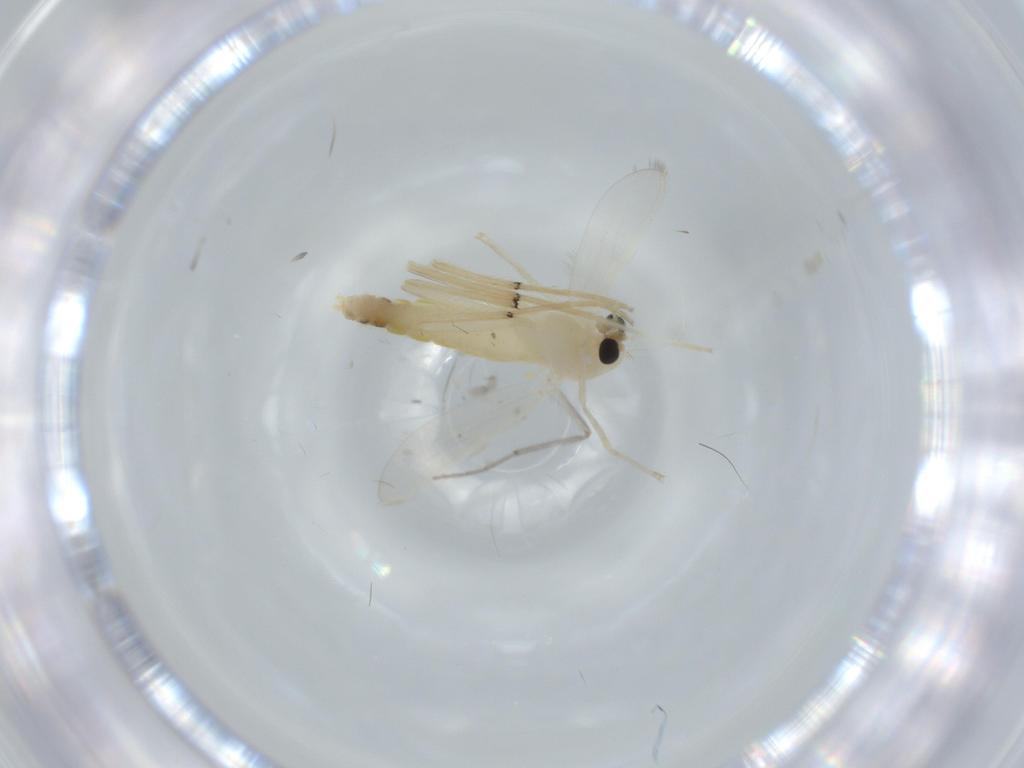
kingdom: Animalia
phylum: Arthropoda
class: Insecta
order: Diptera
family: Chironomidae
